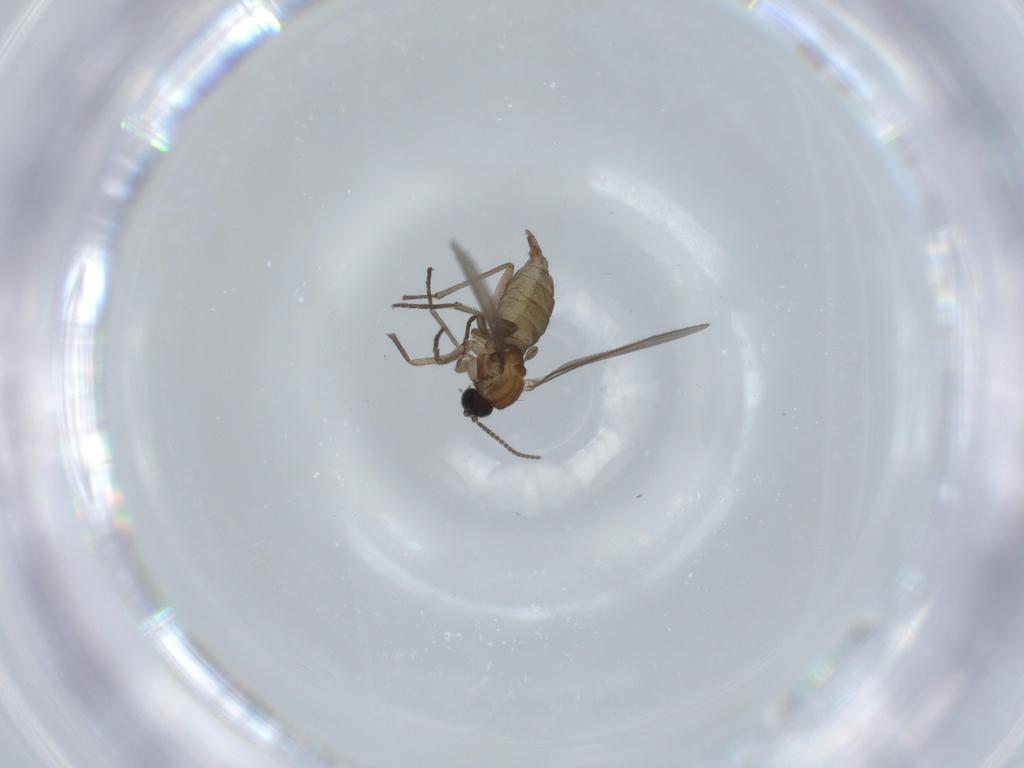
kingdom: Animalia
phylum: Arthropoda
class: Insecta
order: Diptera
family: Sciaridae
